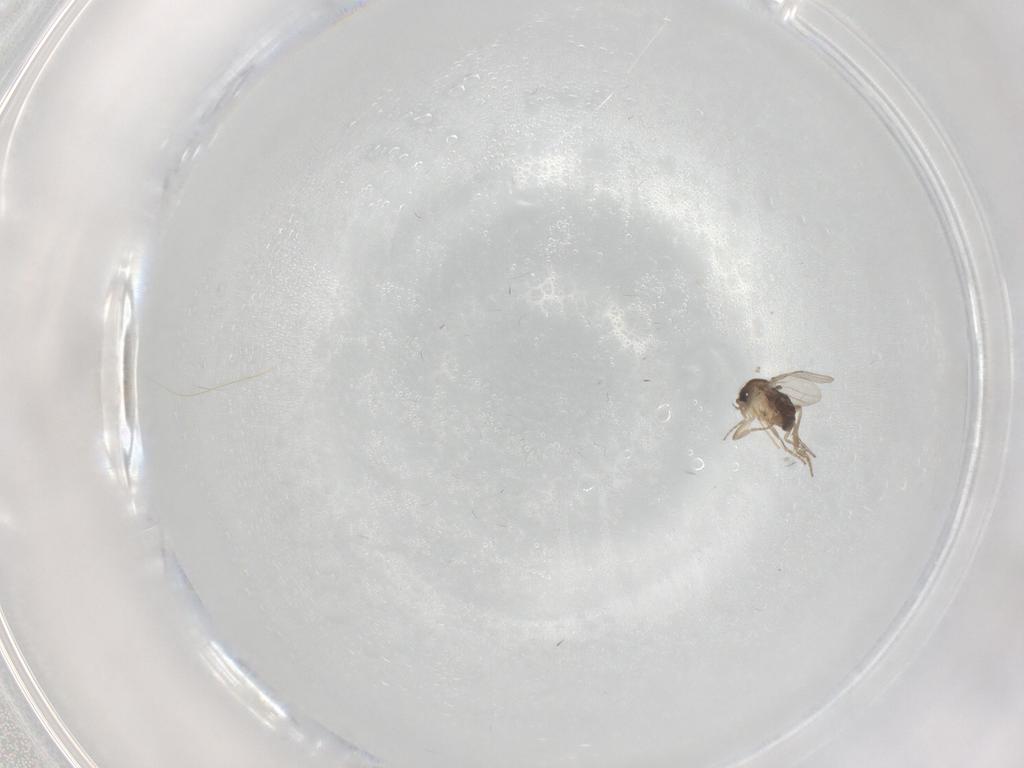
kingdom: Animalia
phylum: Arthropoda
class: Insecta
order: Diptera
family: Phoridae
